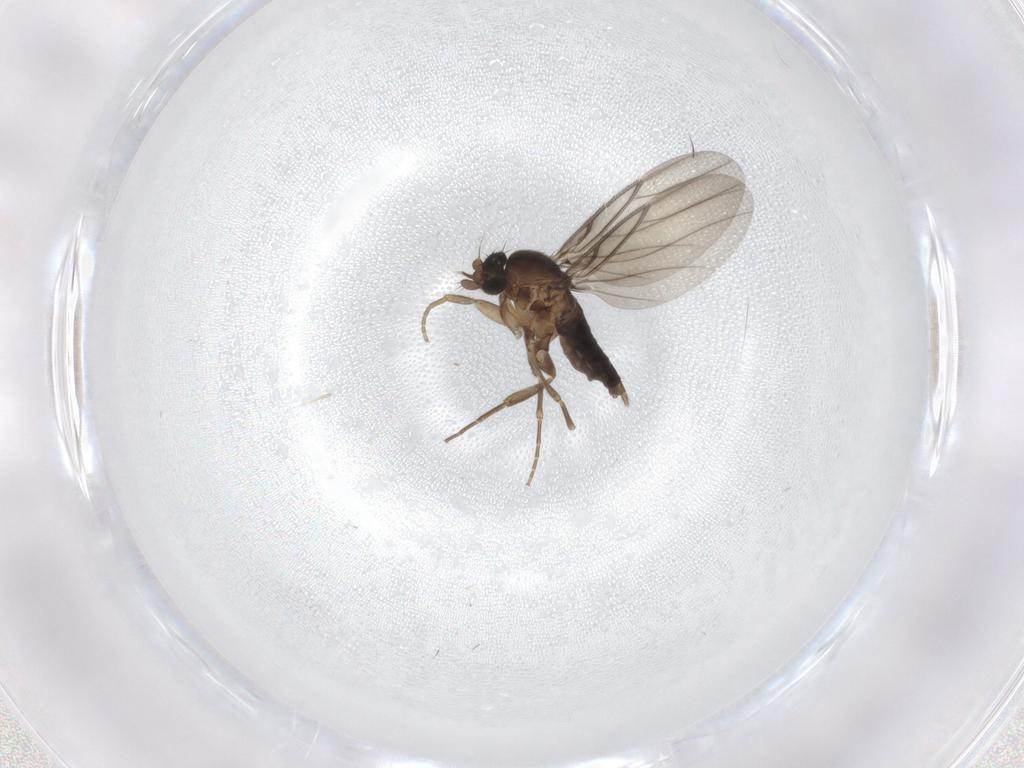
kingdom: Animalia
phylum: Arthropoda
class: Insecta
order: Diptera
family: Phoridae
